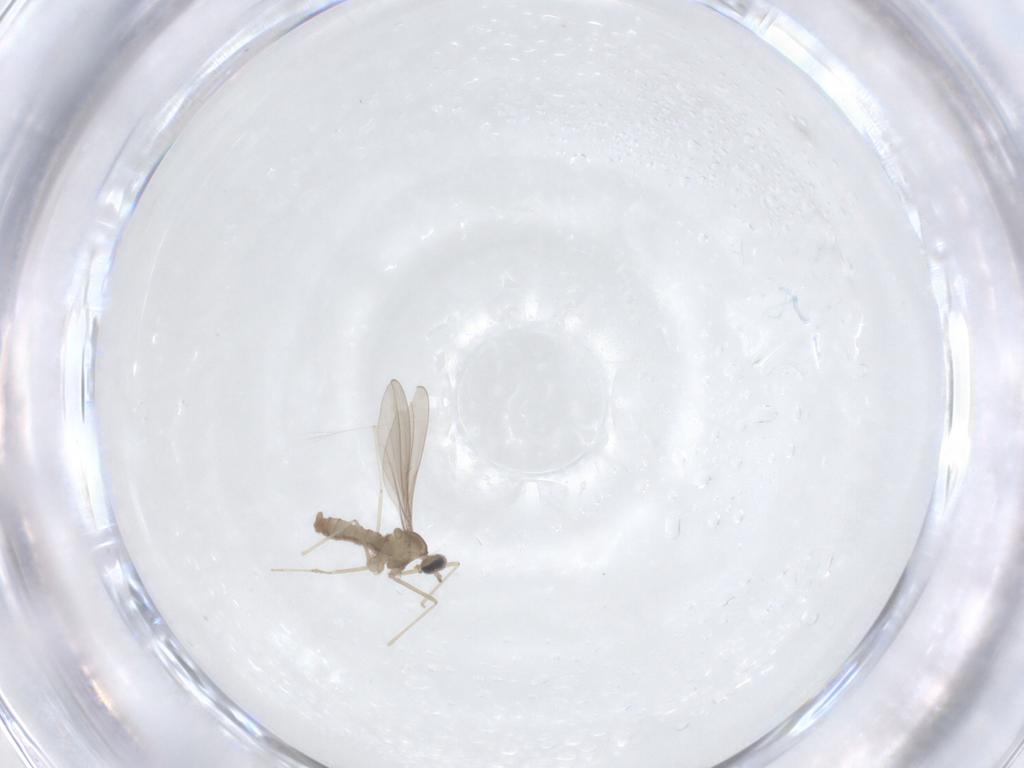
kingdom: Animalia
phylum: Arthropoda
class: Insecta
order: Diptera
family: Cecidomyiidae
